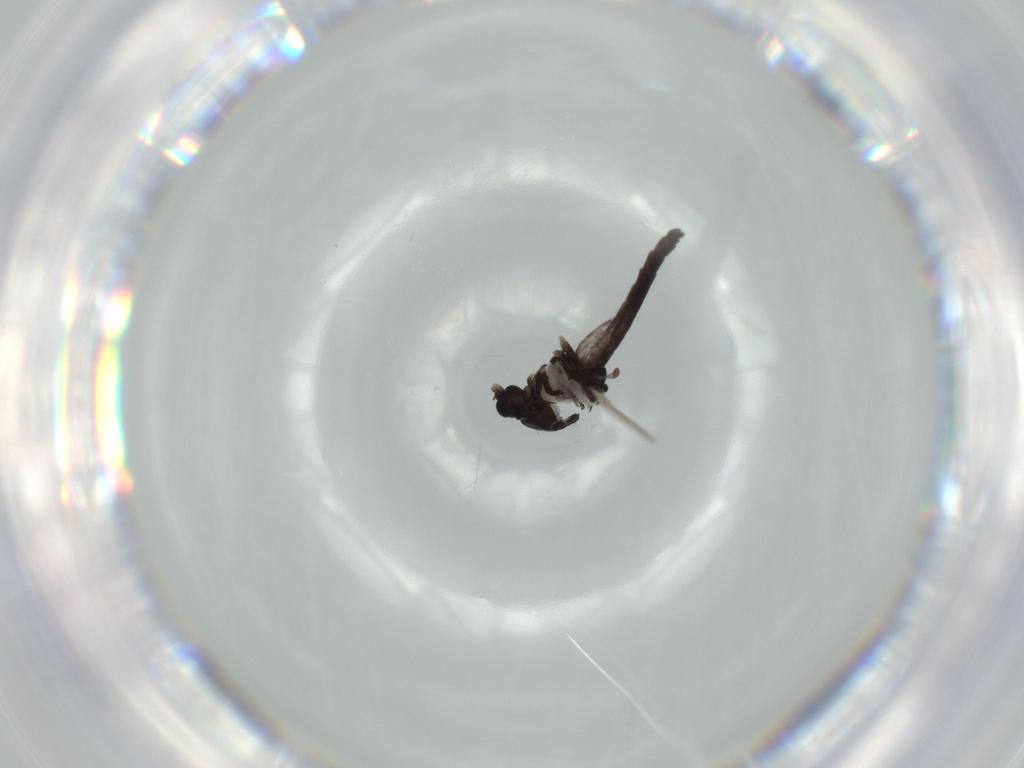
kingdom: Animalia
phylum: Arthropoda
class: Insecta
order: Diptera
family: Chironomidae
